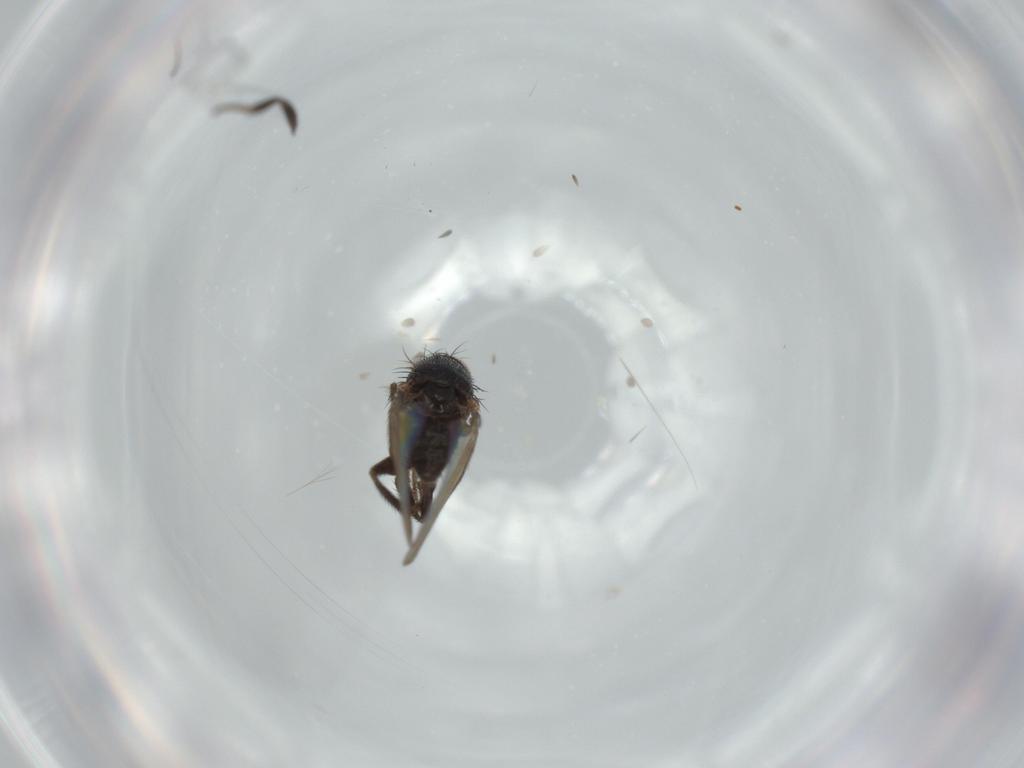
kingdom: Animalia
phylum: Arthropoda
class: Insecta
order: Diptera
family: Milichiidae
